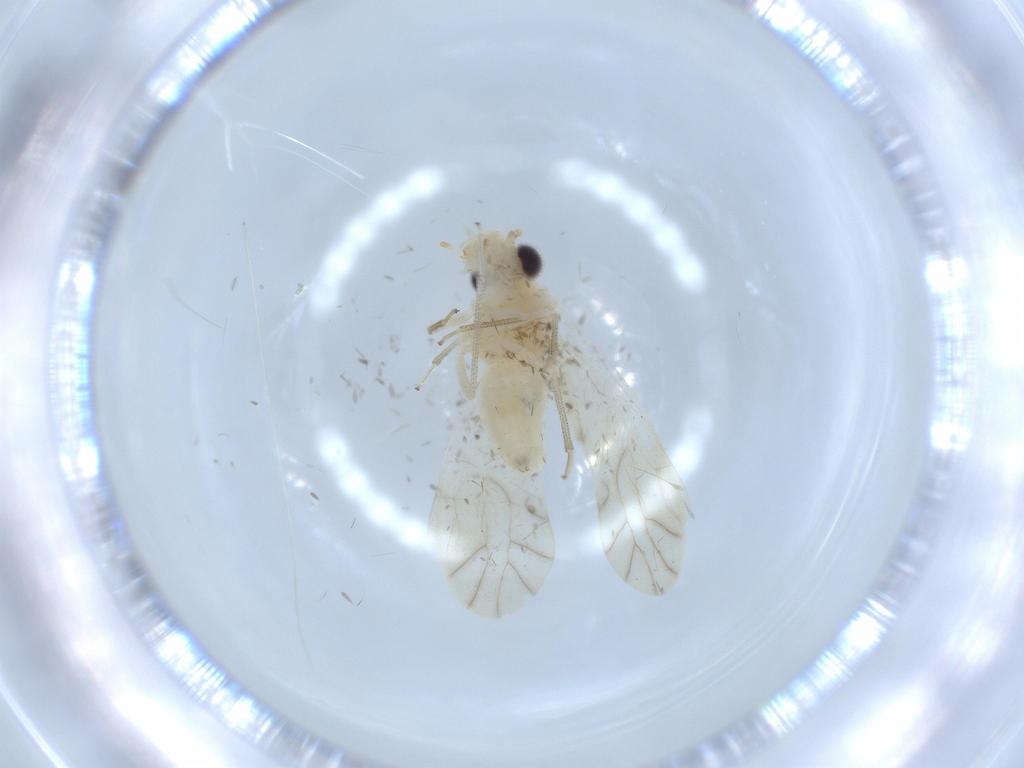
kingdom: Animalia
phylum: Arthropoda
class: Insecta
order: Psocodea
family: Caeciliusidae
